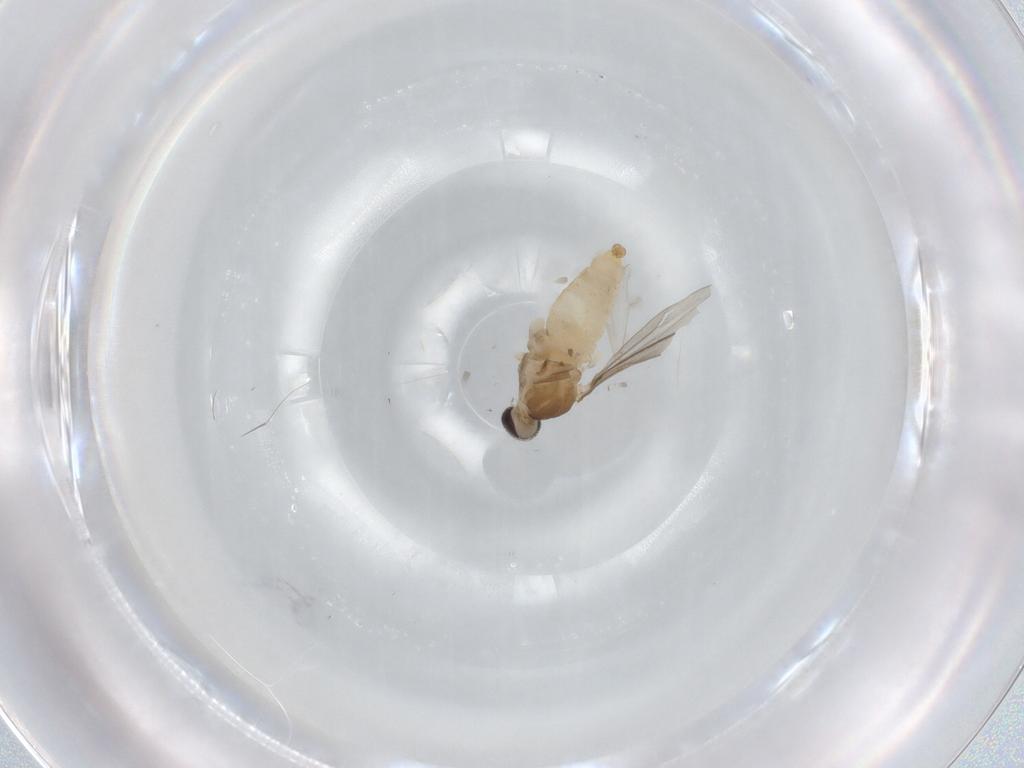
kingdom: Animalia
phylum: Arthropoda
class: Insecta
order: Diptera
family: Cecidomyiidae
